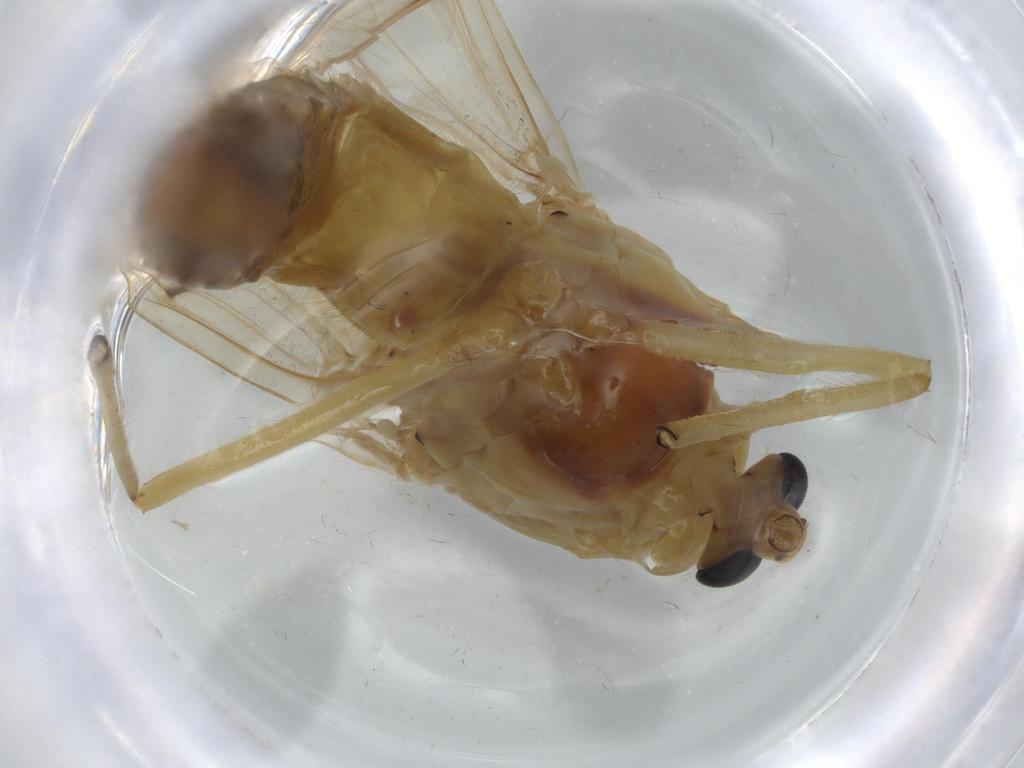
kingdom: Animalia
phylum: Arthropoda
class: Insecta
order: Diptera
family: Chironomidae
